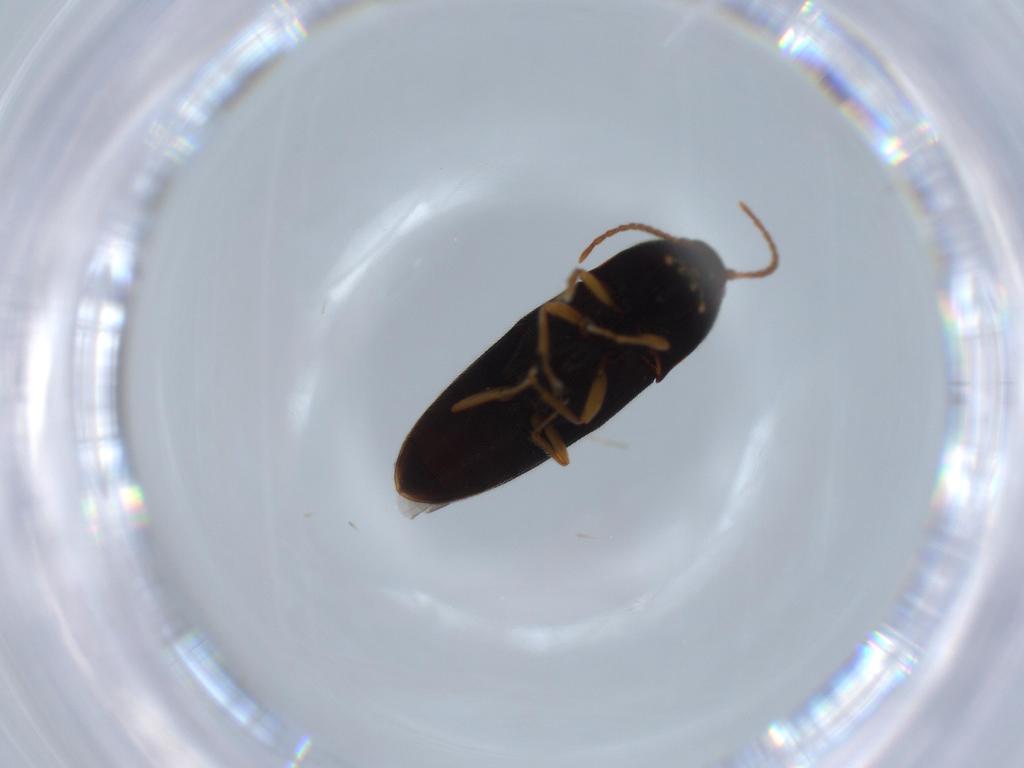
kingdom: Animalia
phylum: Arthropoda
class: Insecta
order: Coleoptera
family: Elateridae
